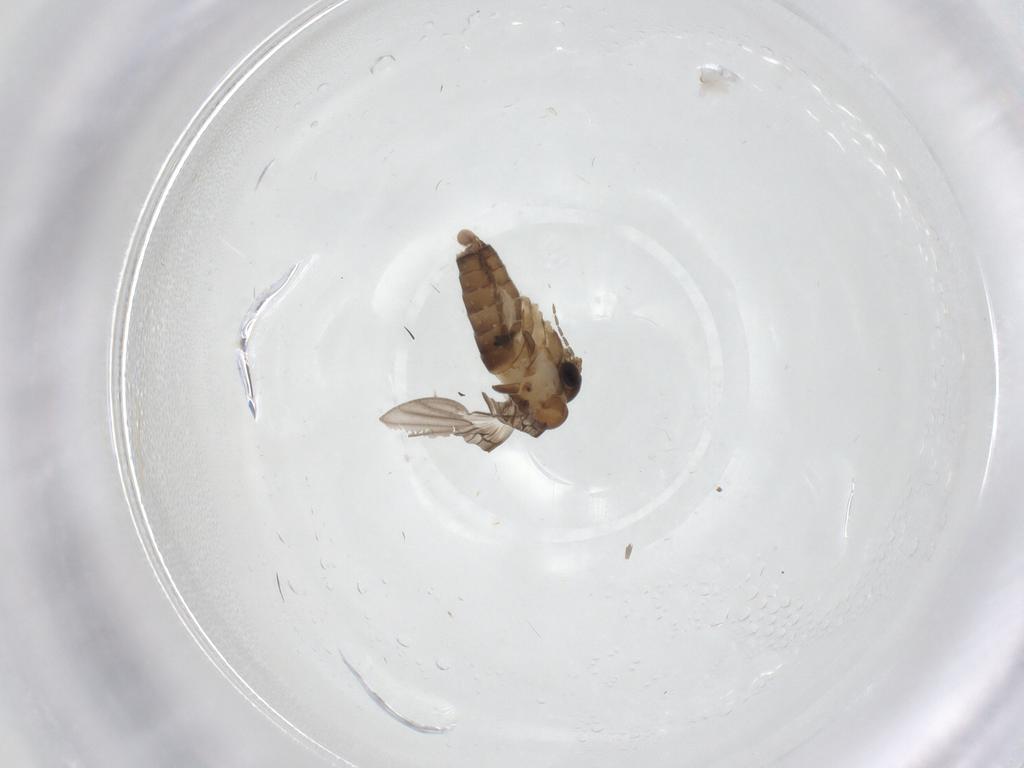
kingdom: Animalia
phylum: Arthropoda
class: Insecta
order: Diptera
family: Psychodidae
